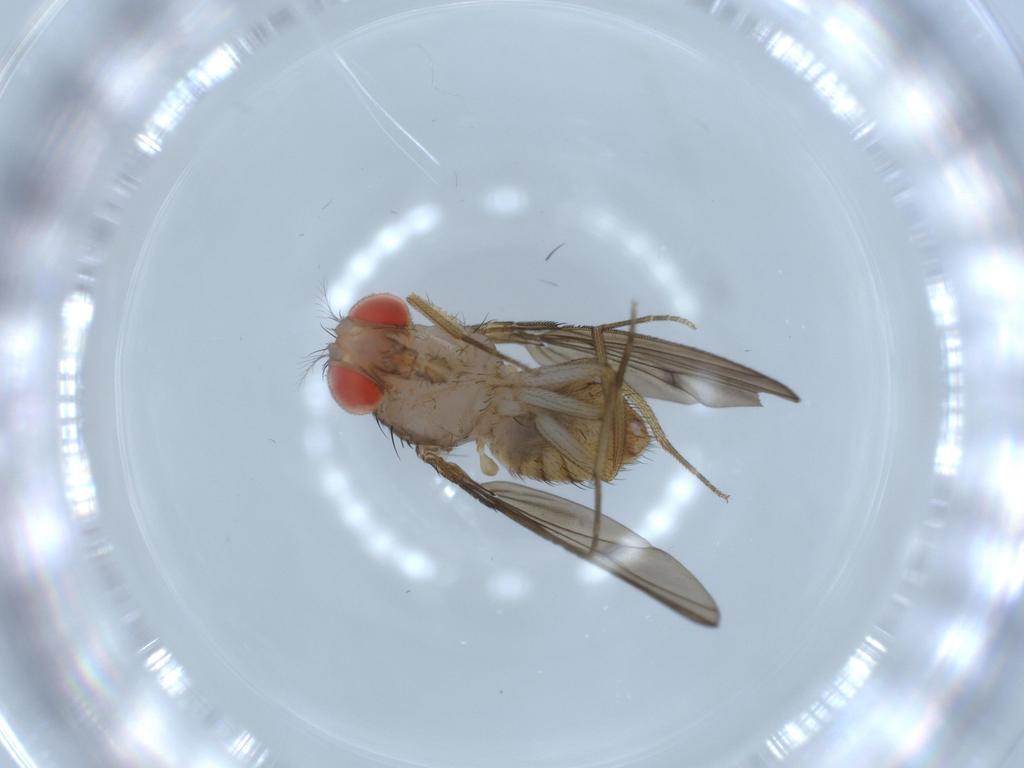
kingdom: Animalia
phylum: Arthropoda
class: Insecta
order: Diptera
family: Drosophilidae
